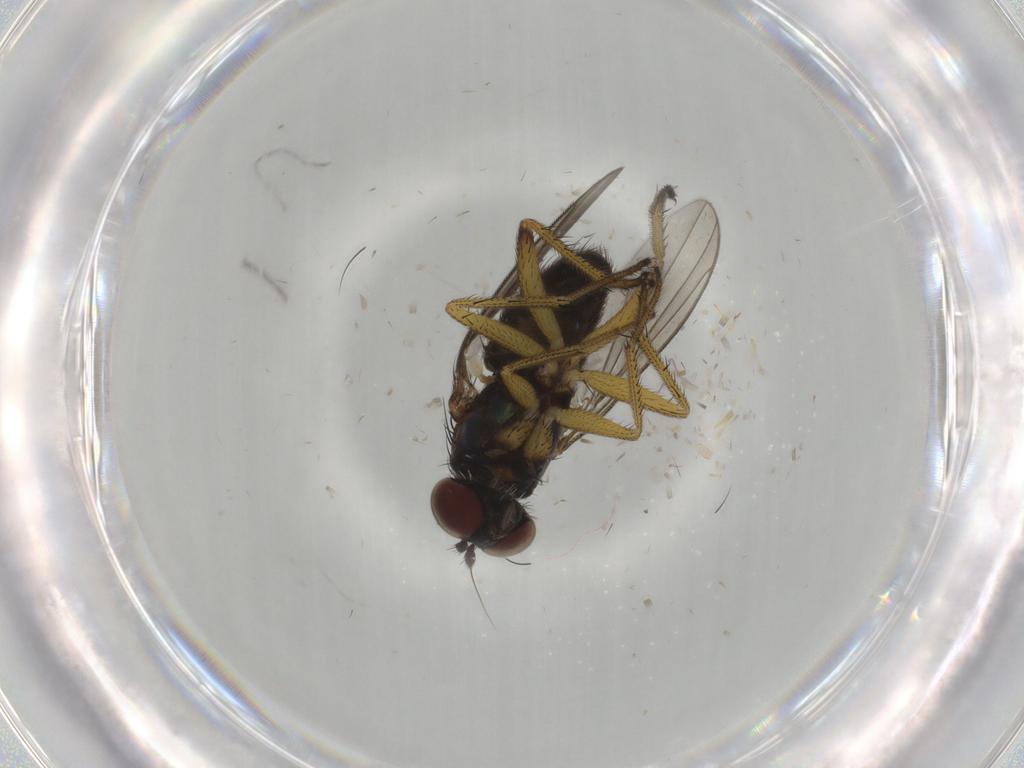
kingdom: Animalia
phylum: Arthropoda
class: Insecta
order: Diptera
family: Dolichopodidae
